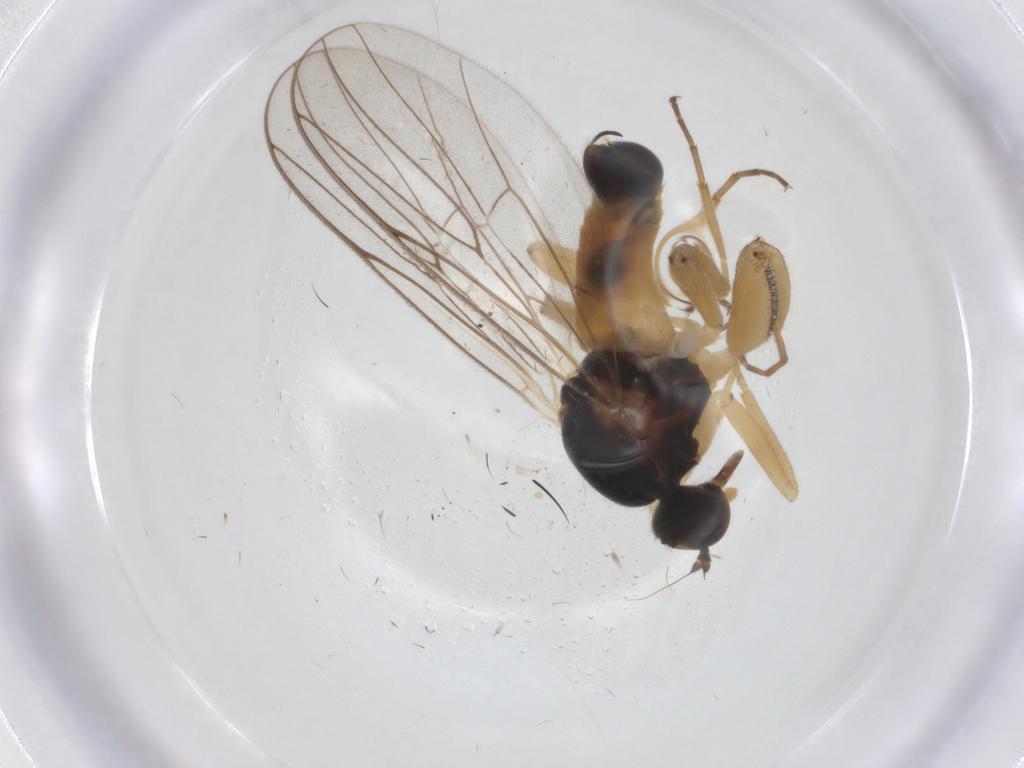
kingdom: Animalia
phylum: Arthropoda
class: Insecta
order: Diptera
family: Hybotidae
